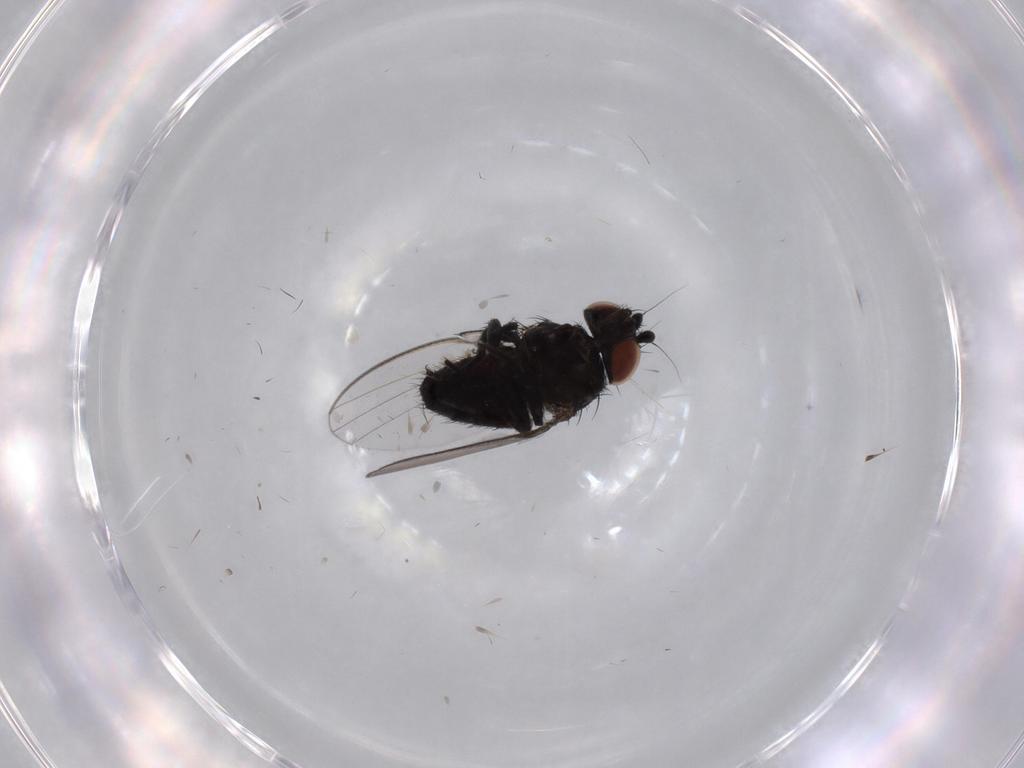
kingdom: Animalia
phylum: Arthropoda
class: Insecta
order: Diptera
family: Milichiidae
